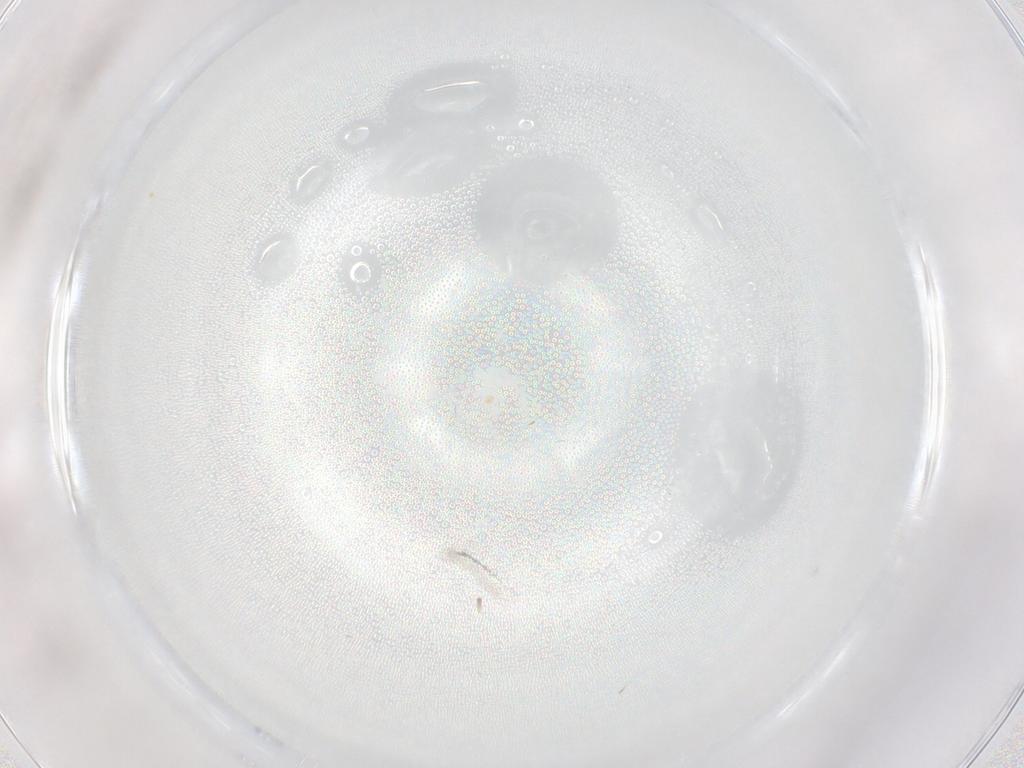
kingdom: Animalia
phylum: Arthropoda
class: Insecta
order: Diptera
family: Chironomidae
